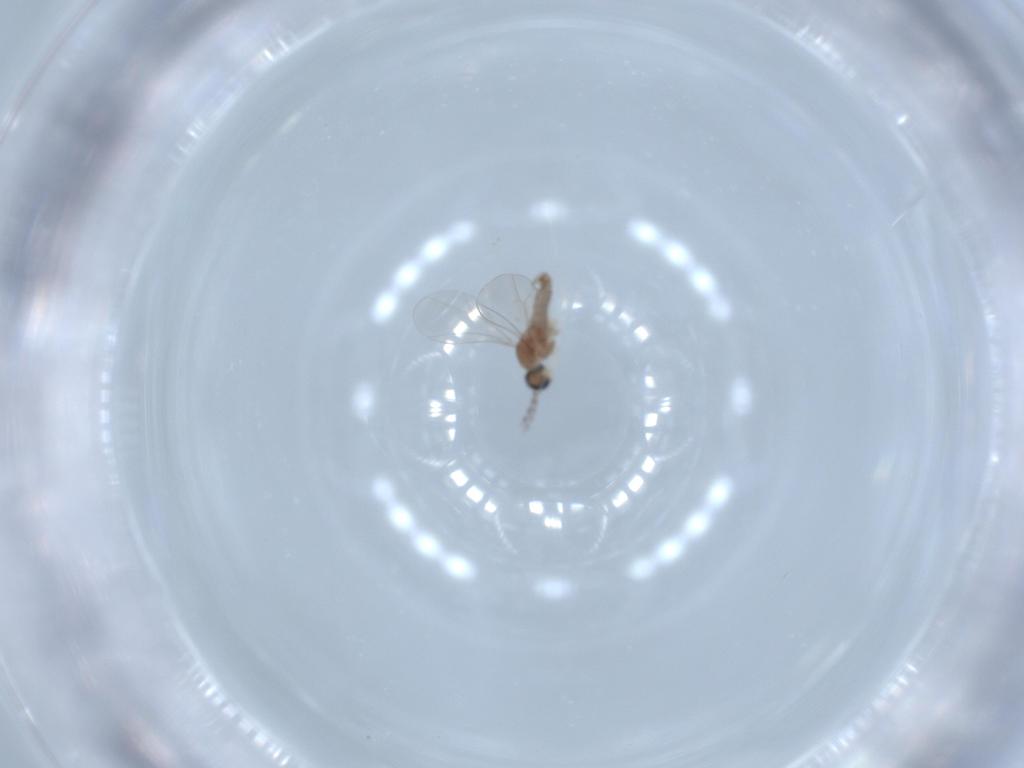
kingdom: Animalia
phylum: Arthropoda
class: Insecta
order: Diptera
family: Cecidomyiidae
